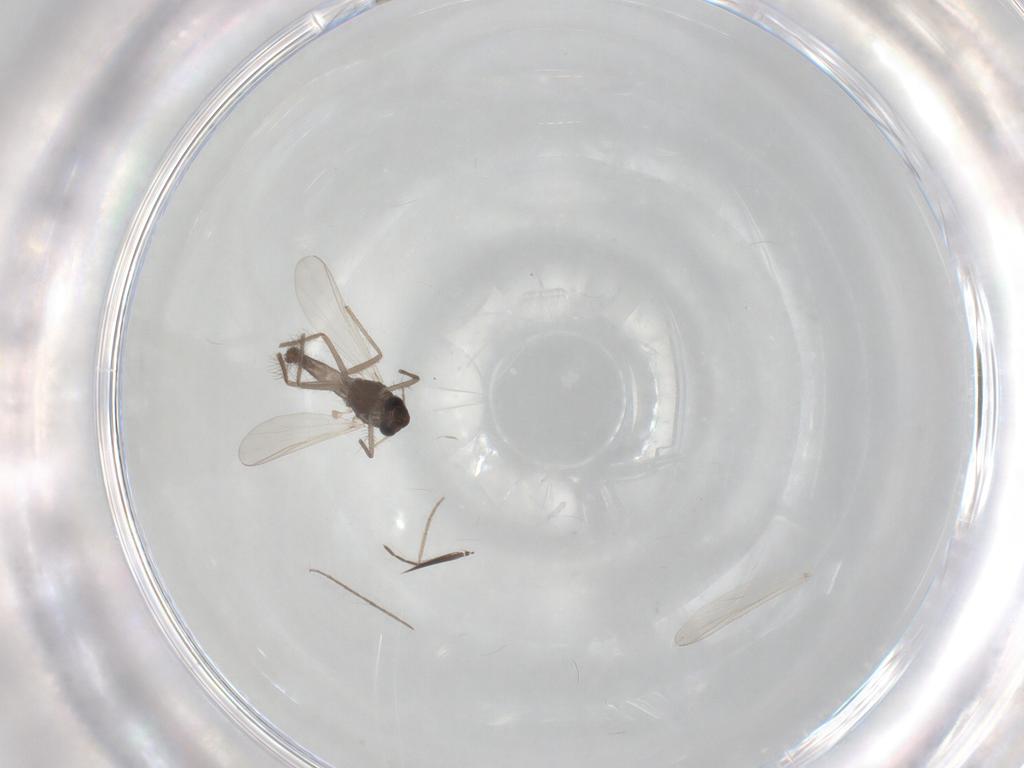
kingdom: Animalia
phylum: Arthropoda
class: Insecta
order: Diptera
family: Chironomidae
